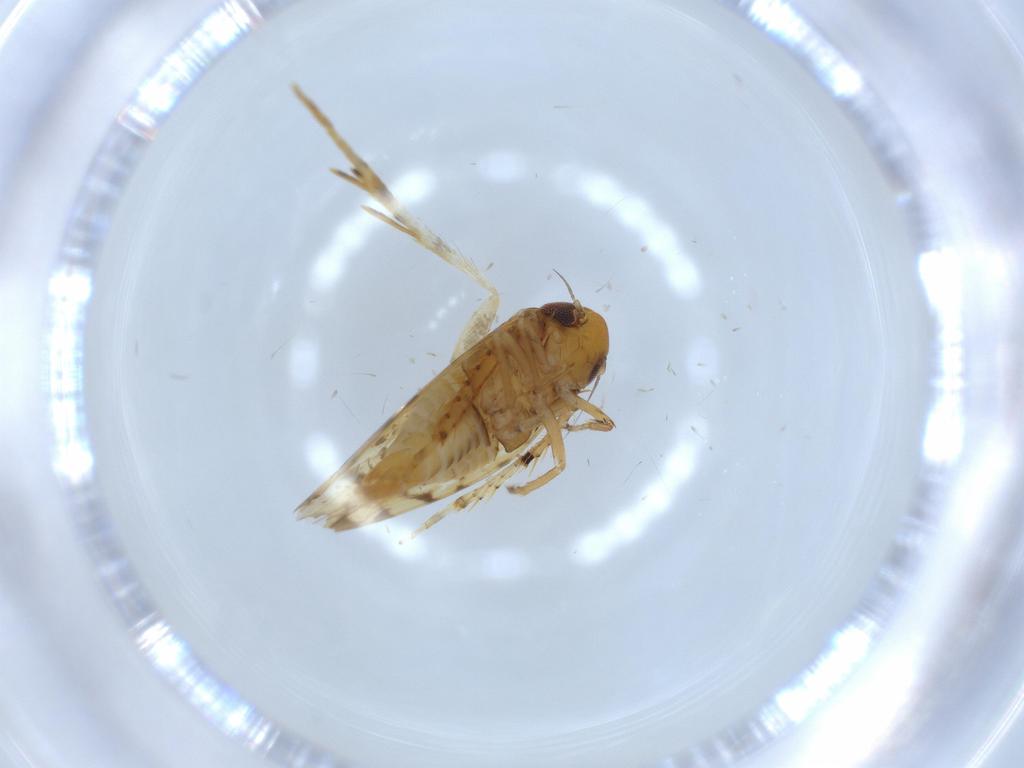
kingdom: Animalia
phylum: Arthropoda
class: Insecta
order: Hemiptera
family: Cicadellidae
